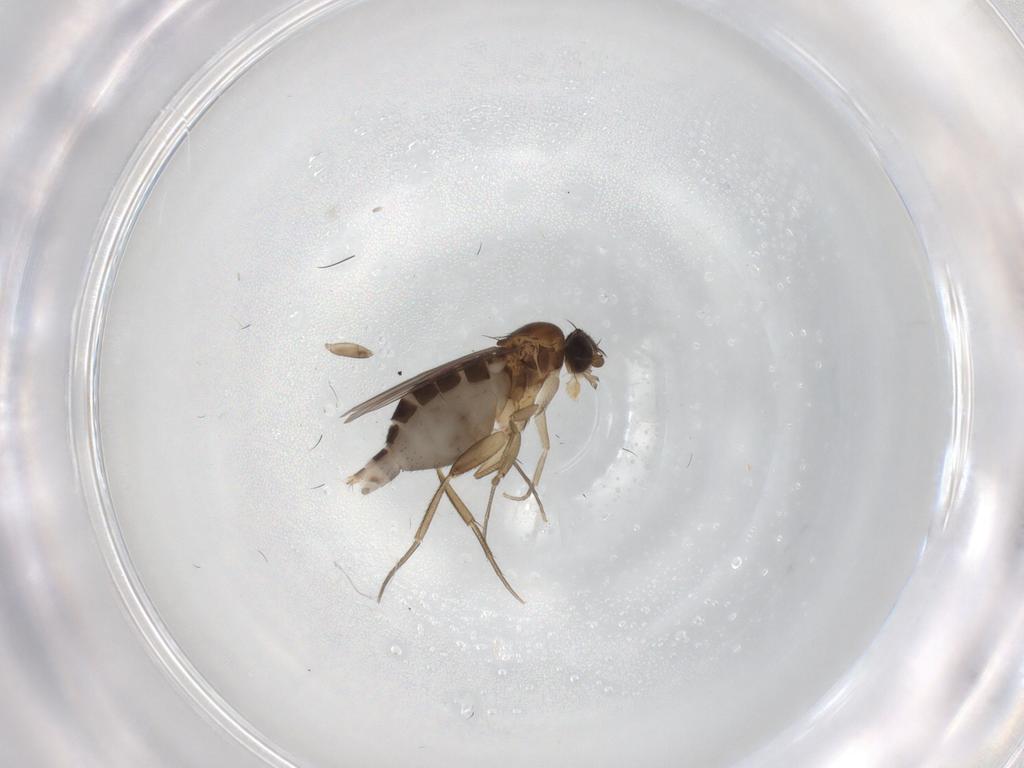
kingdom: Animalia
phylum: Arthropoda
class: Insecta
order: Diptera
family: Phoridae
